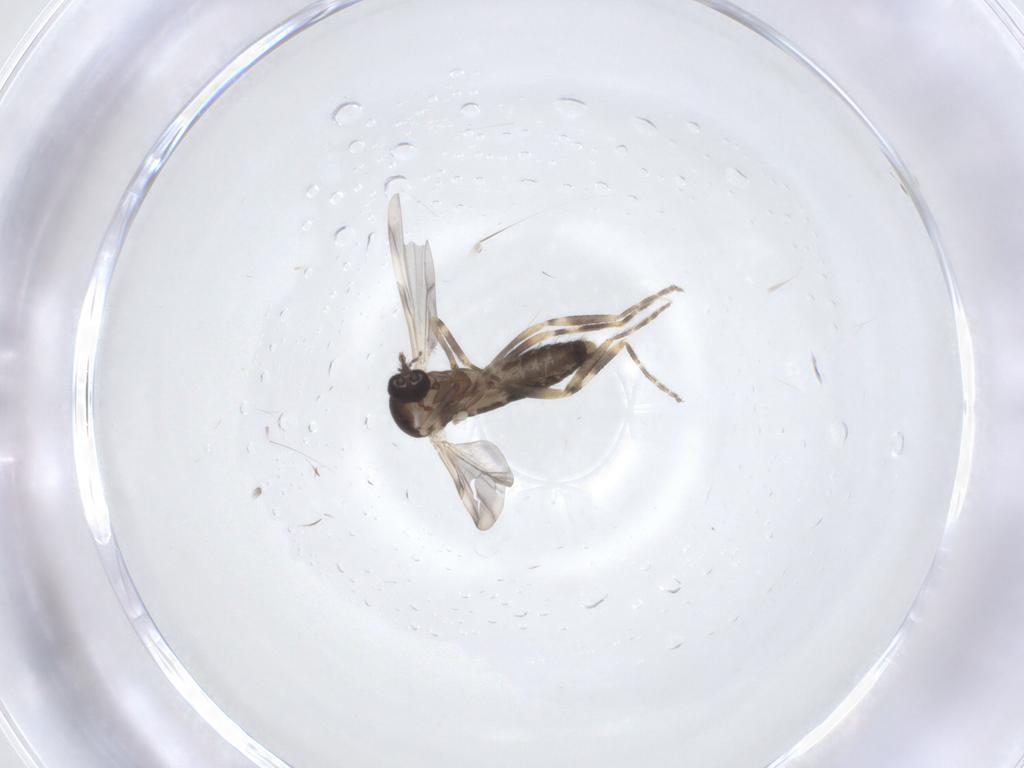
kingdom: Animalia
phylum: Arthropoda
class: Insecta
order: Diptera
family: Ceratopogonidae
